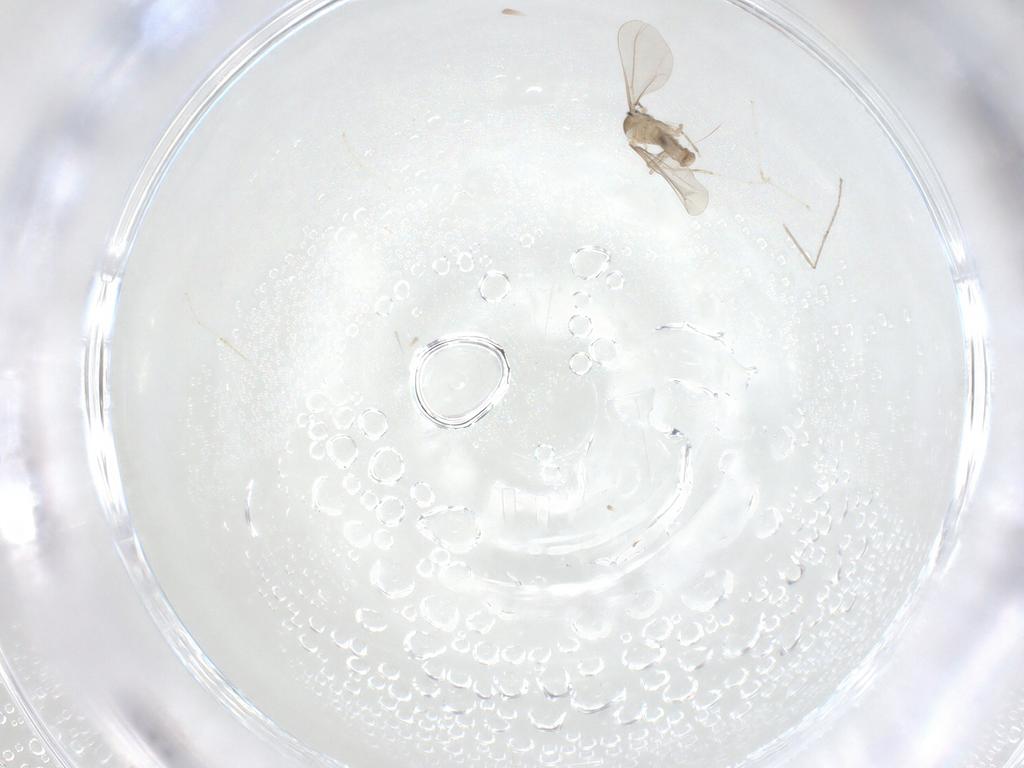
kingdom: Animalia
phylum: Arthropoda
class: Insecta
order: Diptera
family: Cecidomyiidae
